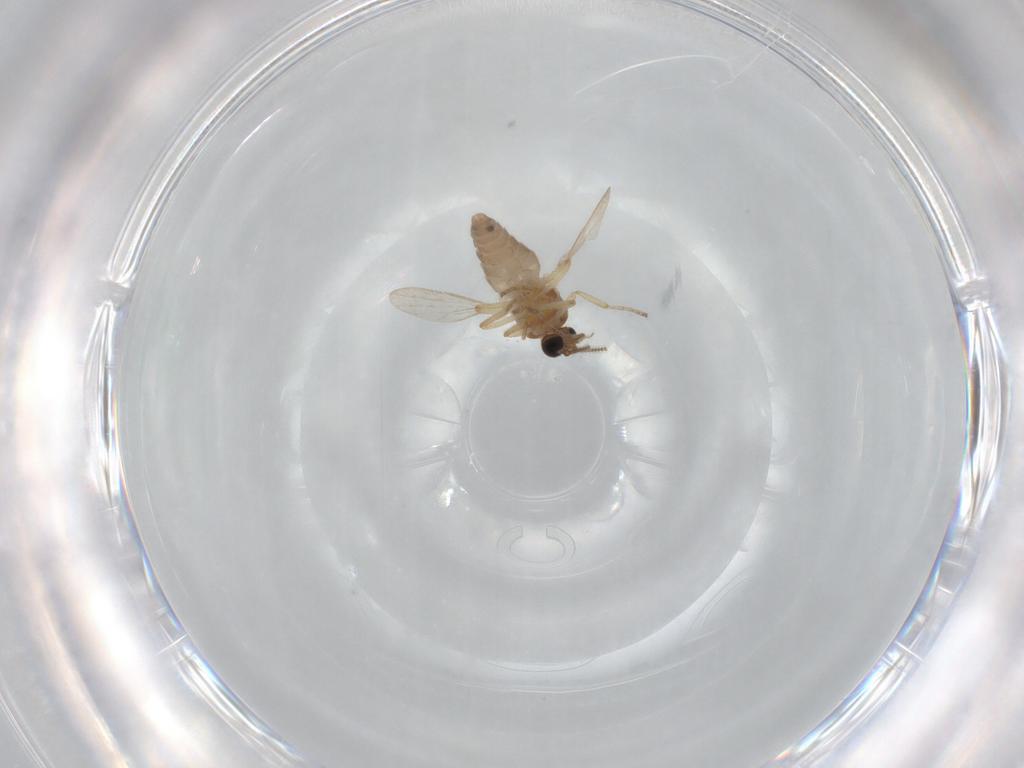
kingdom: Animalia
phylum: Arthropoda
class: Insecta
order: Diptera
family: Ceratopogonidae
